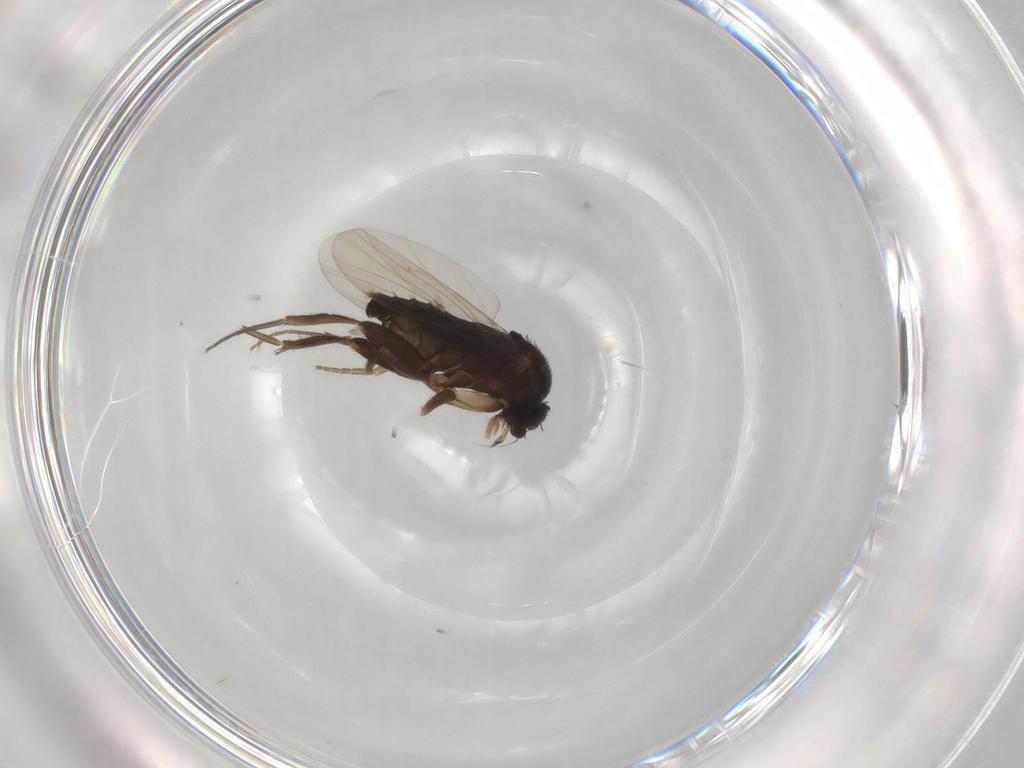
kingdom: Animalia
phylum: Arthropoda
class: Insecta
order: Diptera
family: Phoridae
